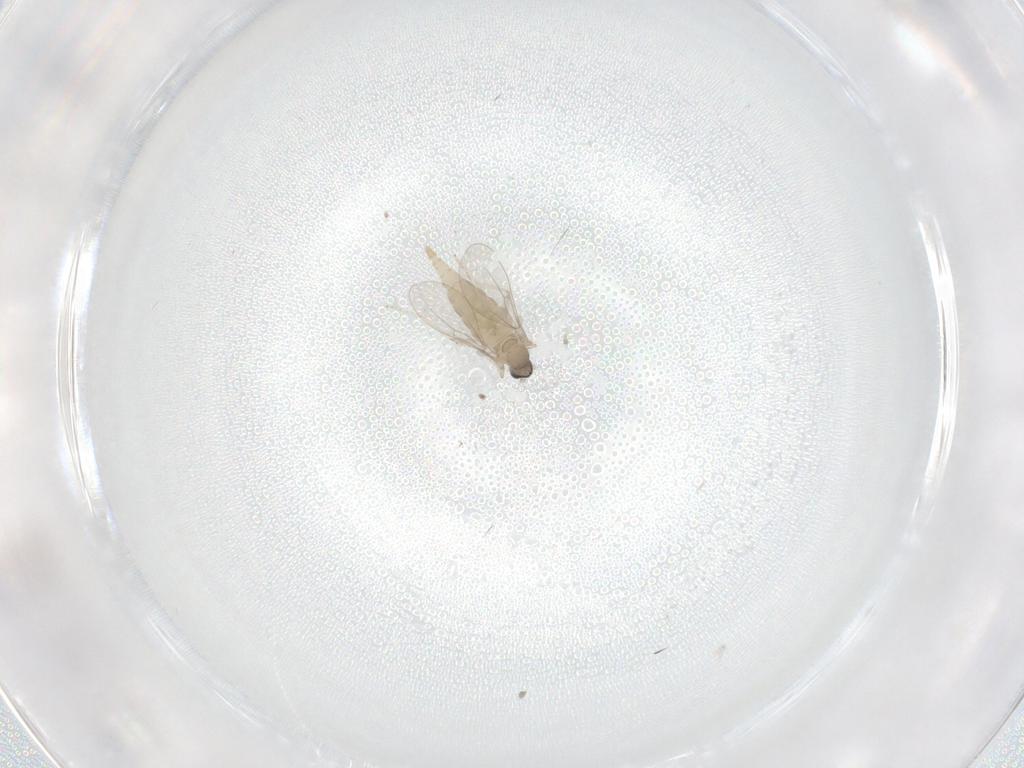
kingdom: Animalia
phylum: Arthropoda
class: Insecta
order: Diptera
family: Cecidomyiidae
